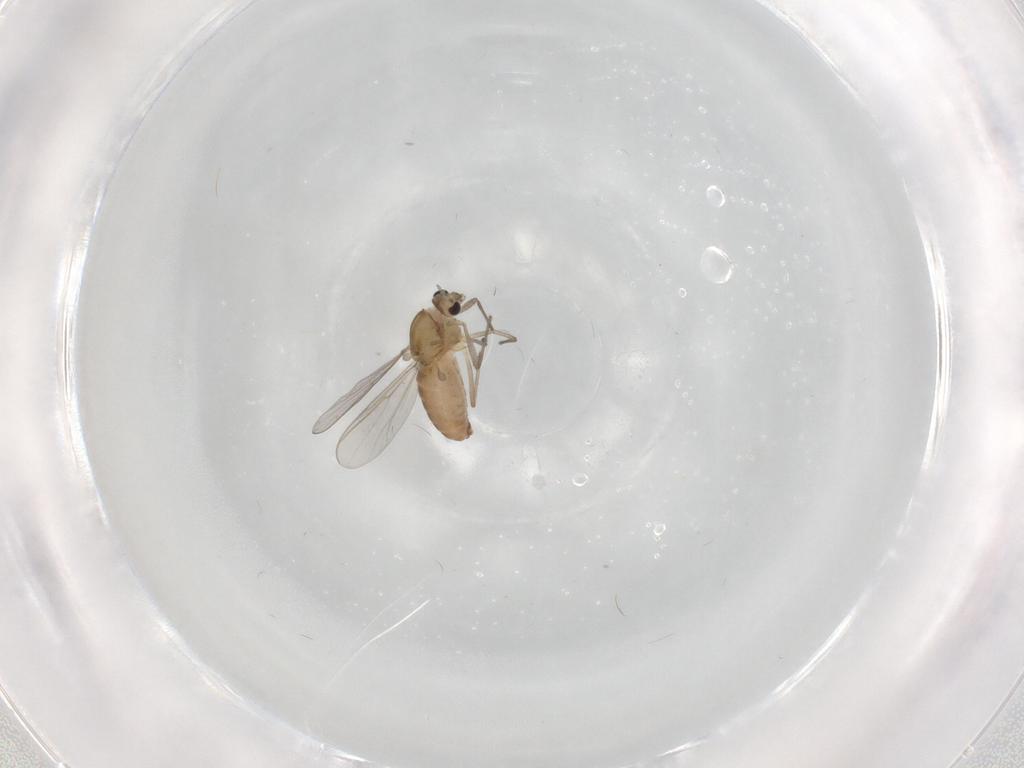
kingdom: Animalia
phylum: Arthropoda
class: Insecta
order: Diptera
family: Chironomidae
